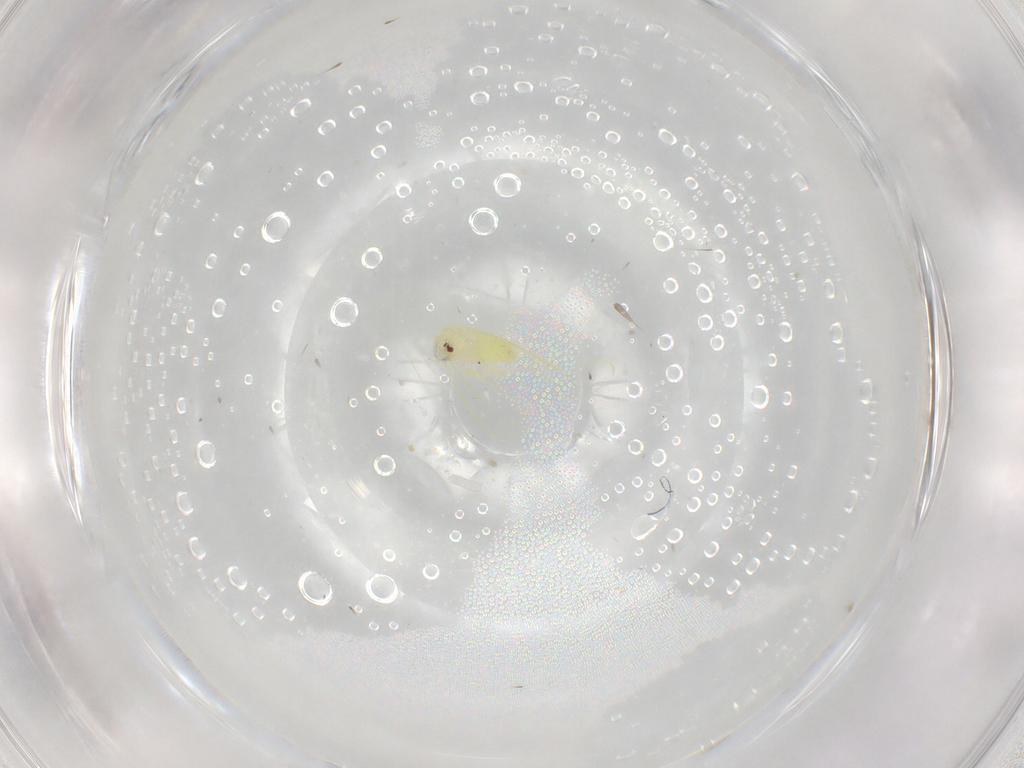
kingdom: Animalia
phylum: Arthropoda
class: Insecta
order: Hemiptera
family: Aleyrodidae
